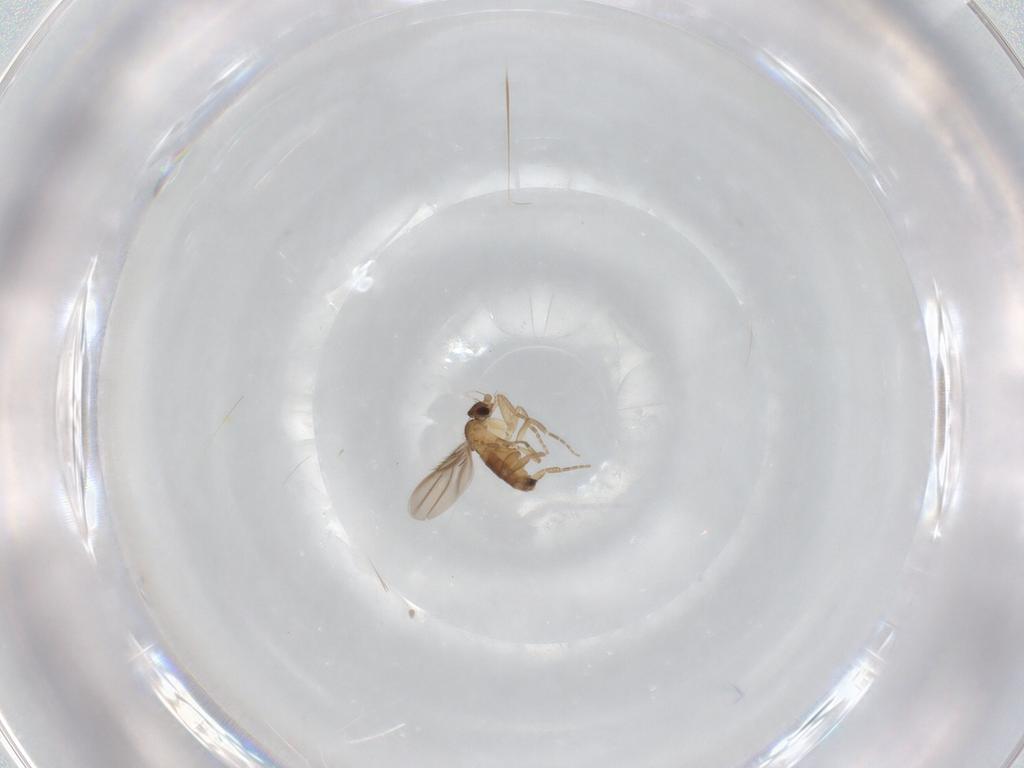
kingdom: Animalia
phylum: Arthropoda
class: Insecta
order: Diptera
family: Phoridae
